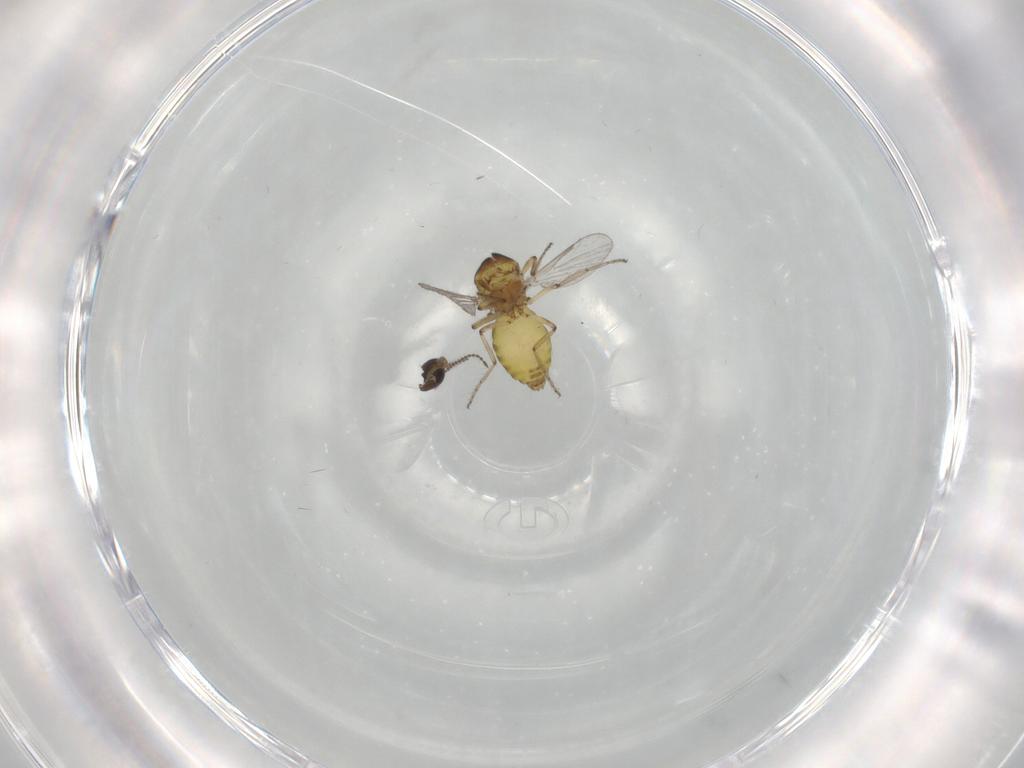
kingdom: Animalia
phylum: Arthropoda
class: Insecta
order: Diptera
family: Ceratopogonidae
